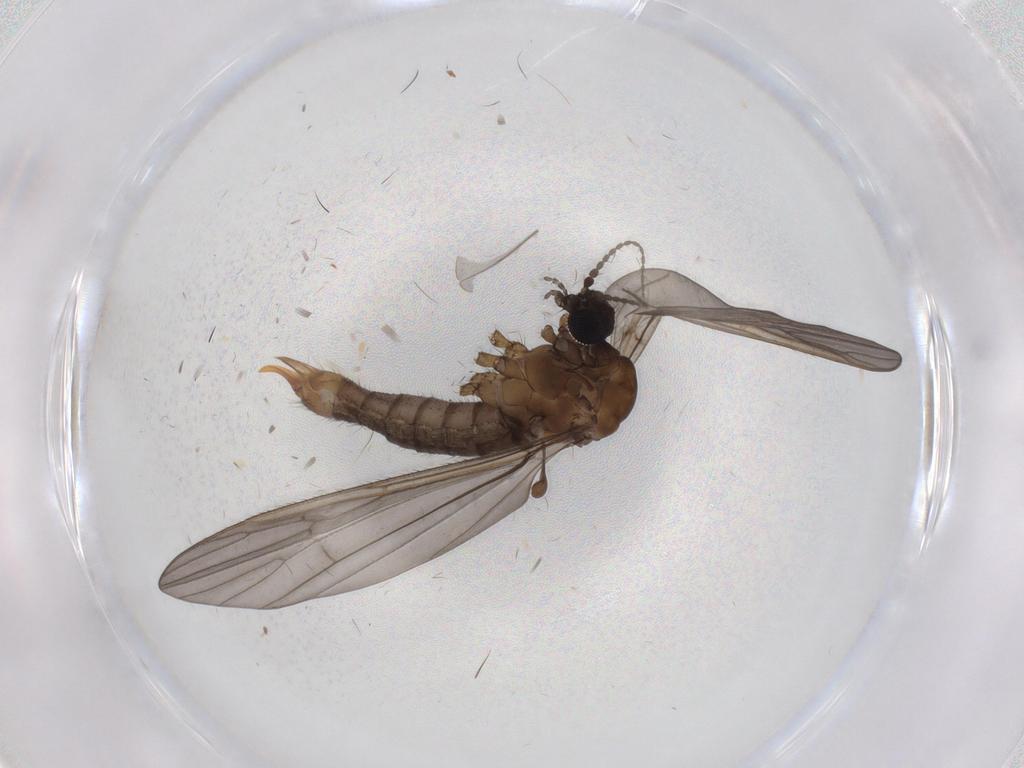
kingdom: Animalia
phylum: Arthropoda
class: Insecta
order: Diptera
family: Limoniidae
